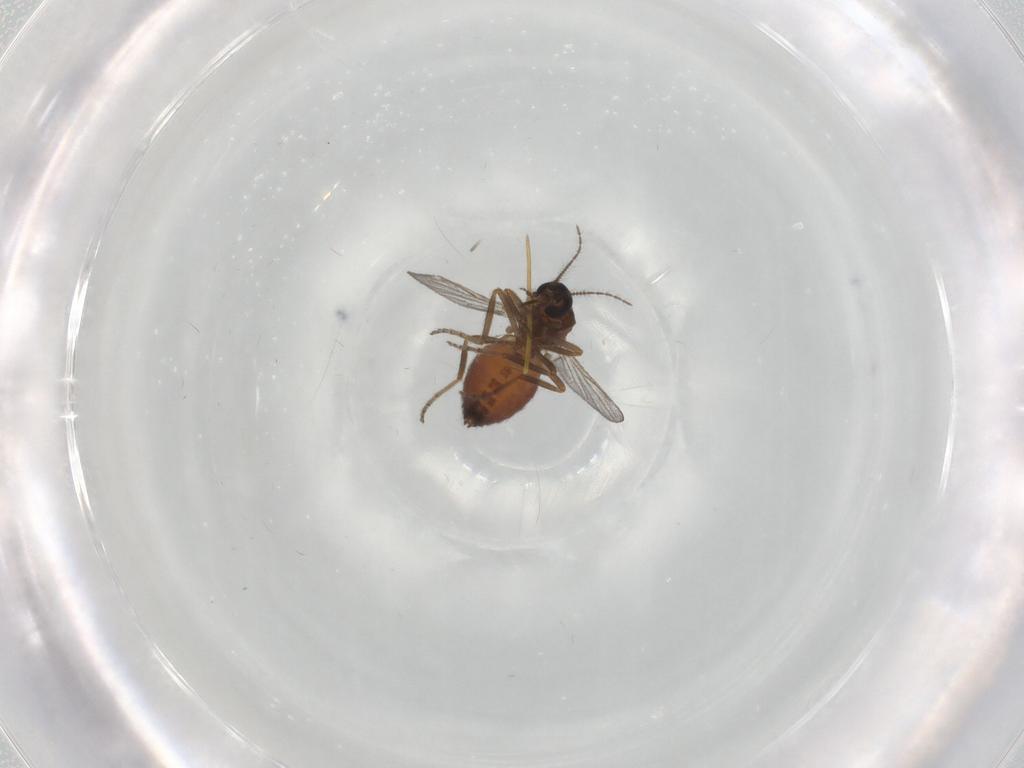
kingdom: Animalia
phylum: Arthropoda
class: Insecta
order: Diptera
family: Ceratopogonidae
